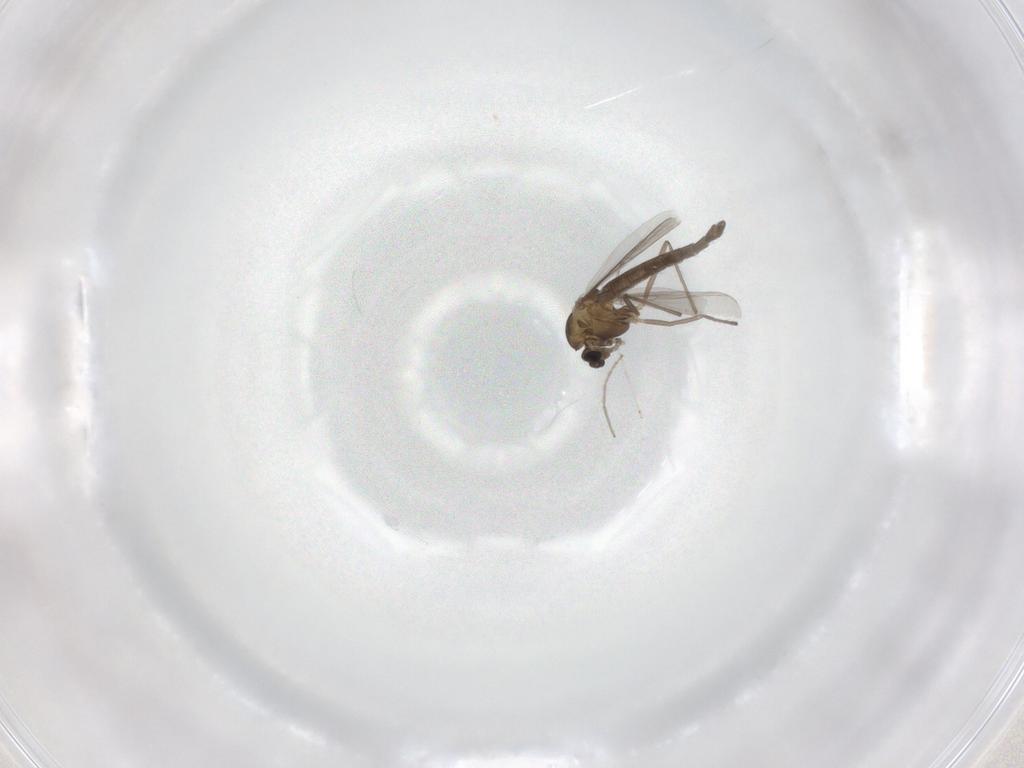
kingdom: Animalia
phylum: Arthropoda
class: Insecta
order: Diptera
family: Chironomidae
